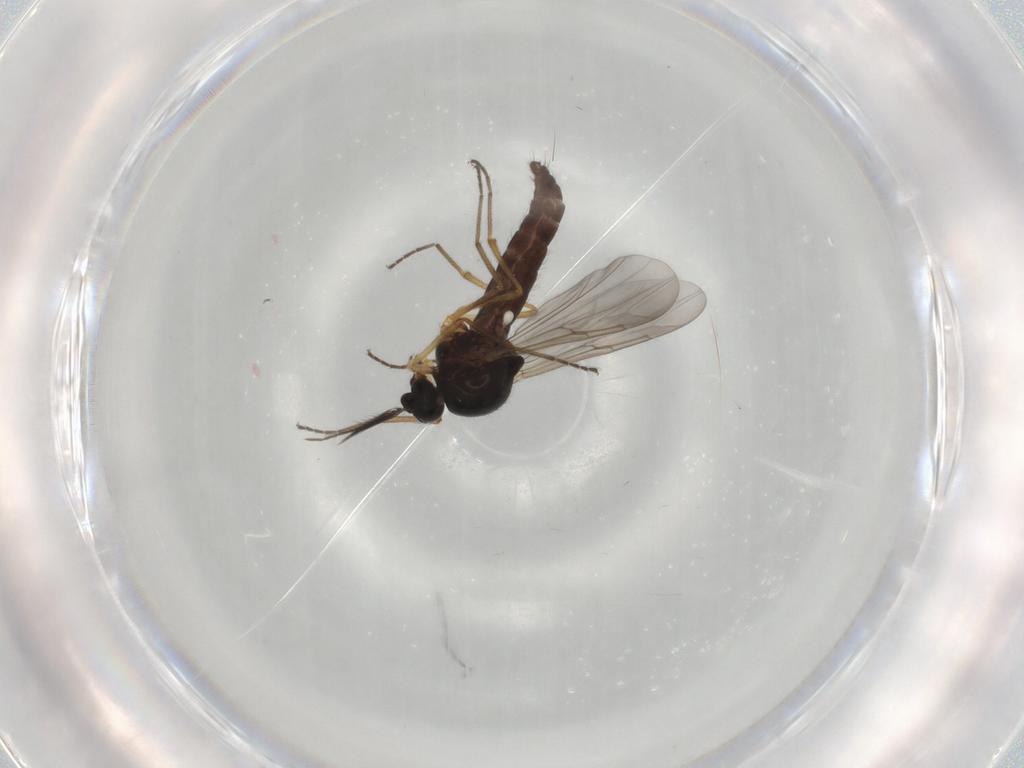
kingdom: Animalia
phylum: Arthropoda
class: Insecta
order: Diptera
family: Ceratopogonidae
